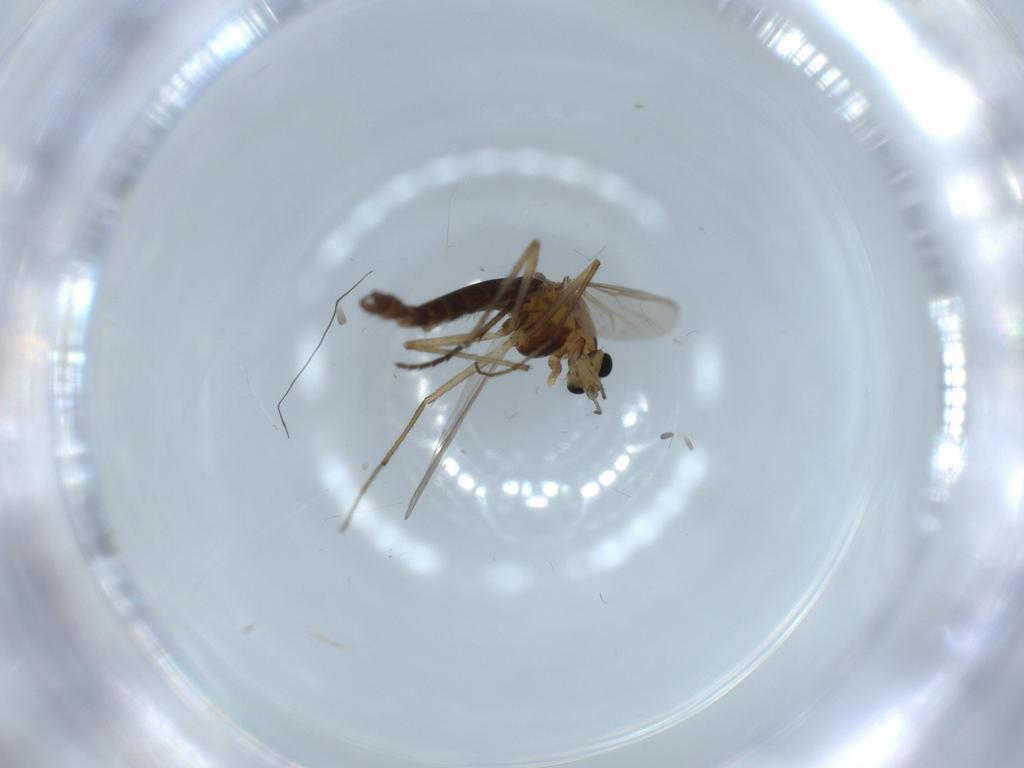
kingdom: Animalia
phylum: Arthropoda
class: Insecta
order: Diptera
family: Chironomidae
